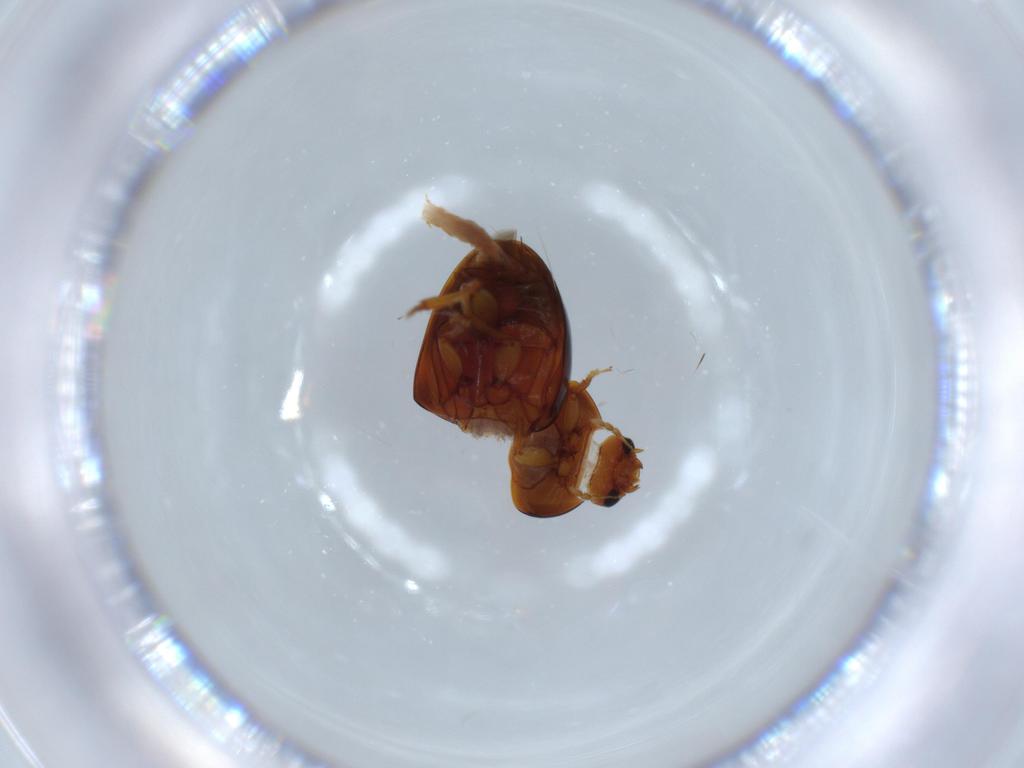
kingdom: Animalia
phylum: Arthropoda
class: Insecta
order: Coleoptera
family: Phalacridae
